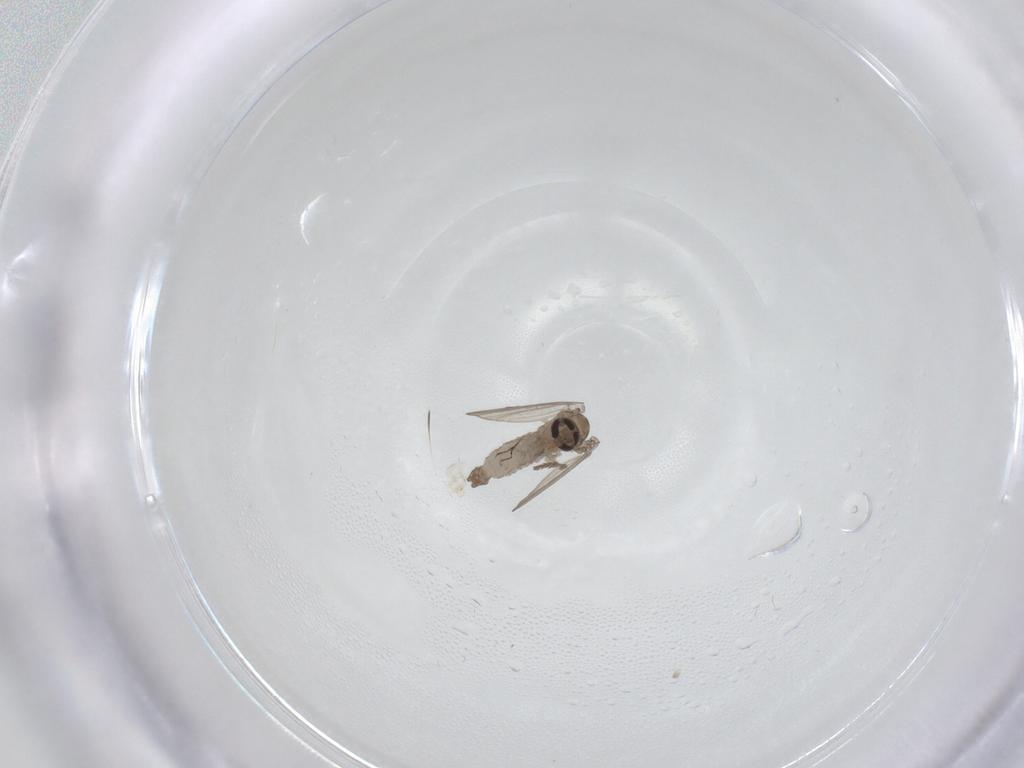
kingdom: Animalia
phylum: Arthropoda
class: Insecta
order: Diptera
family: Psychodidae
